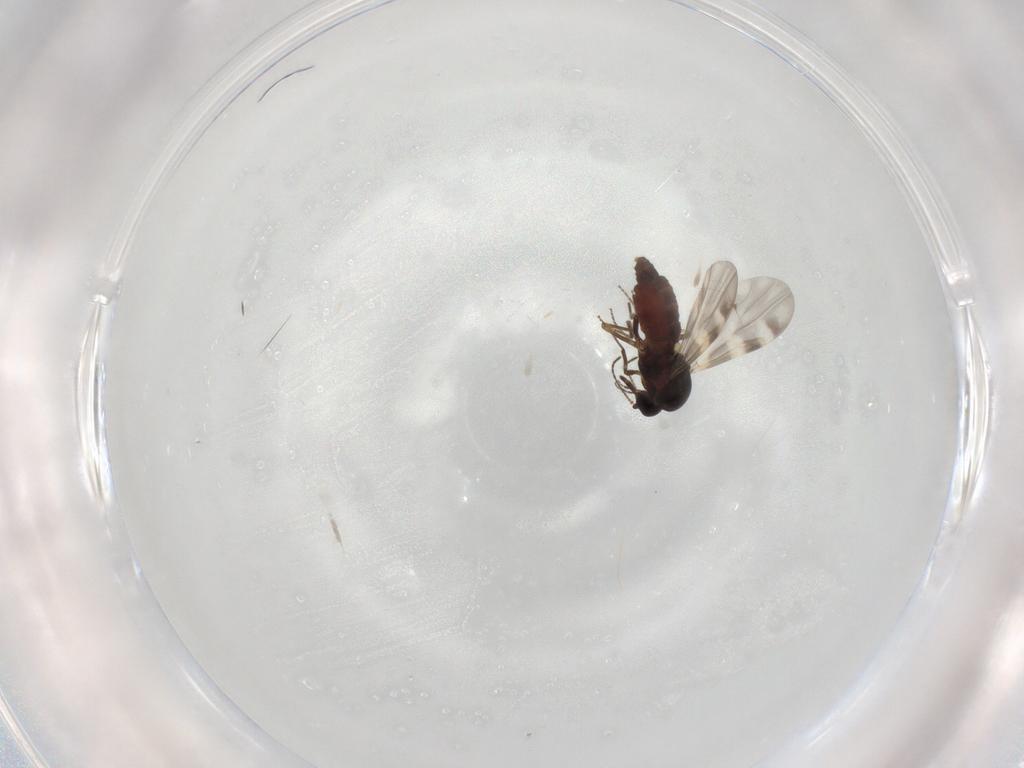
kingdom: Animalia
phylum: Arthropoda
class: Insecta
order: Diptera
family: Ceratopogonidae
